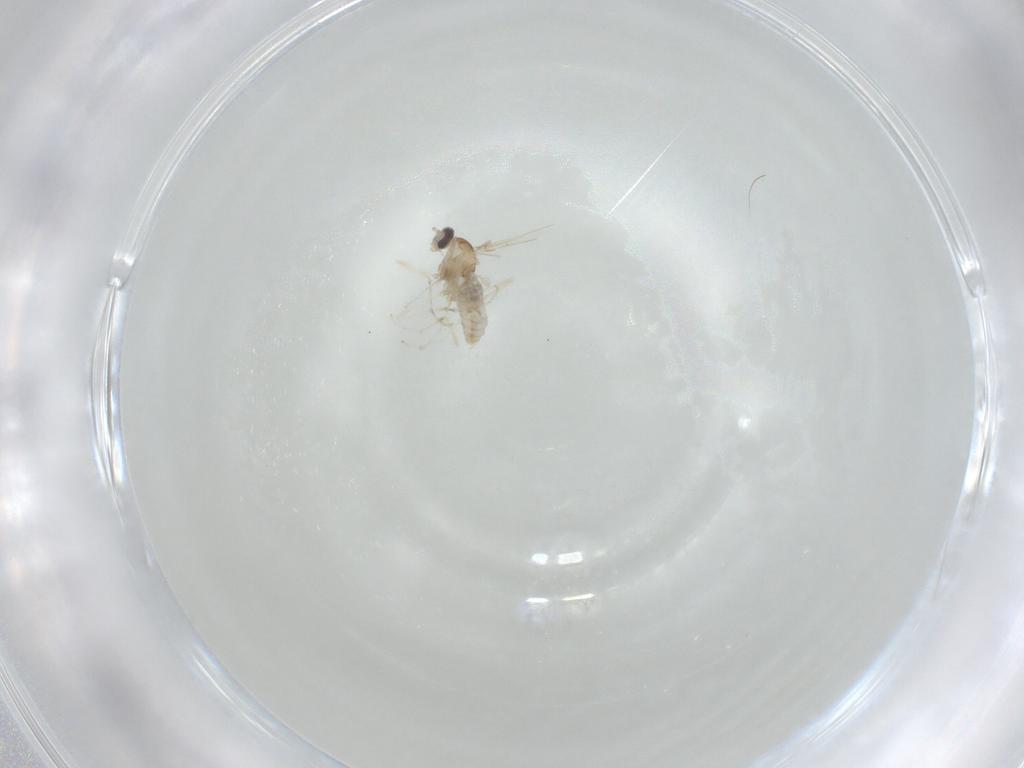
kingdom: Animalia
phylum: Arthropoda
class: Insecta
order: Diptera
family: Cecidomyiidae
